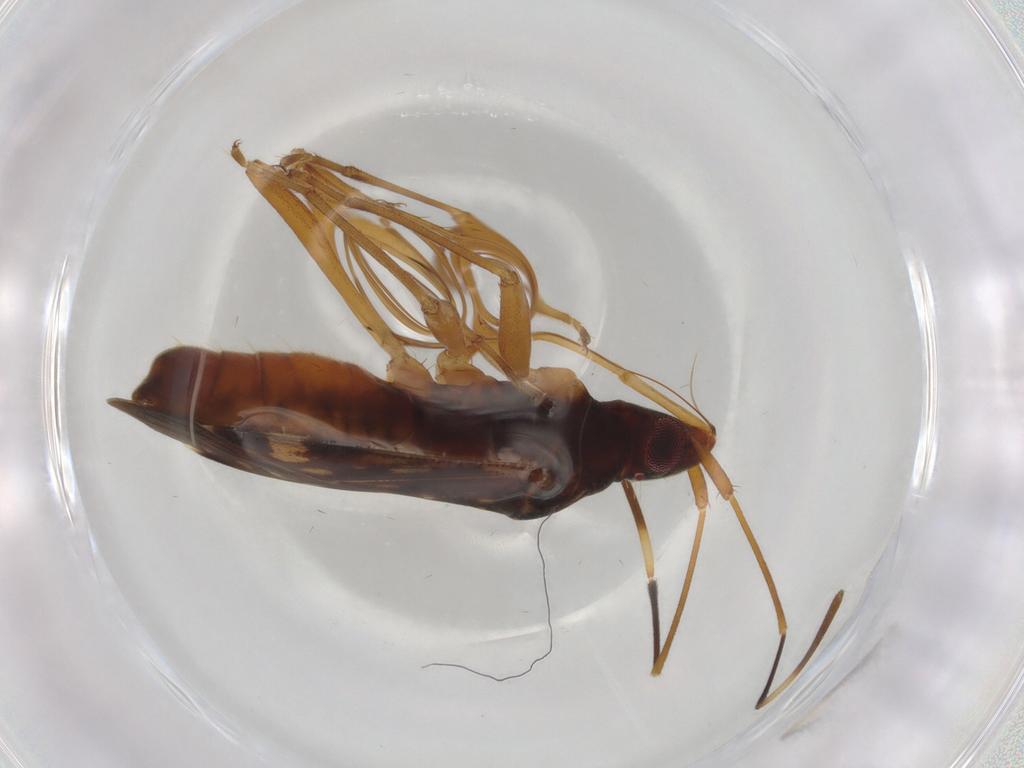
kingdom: Animalia
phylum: Arthropoda
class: Insecta
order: Hemiptera
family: Rhyparochromidae
